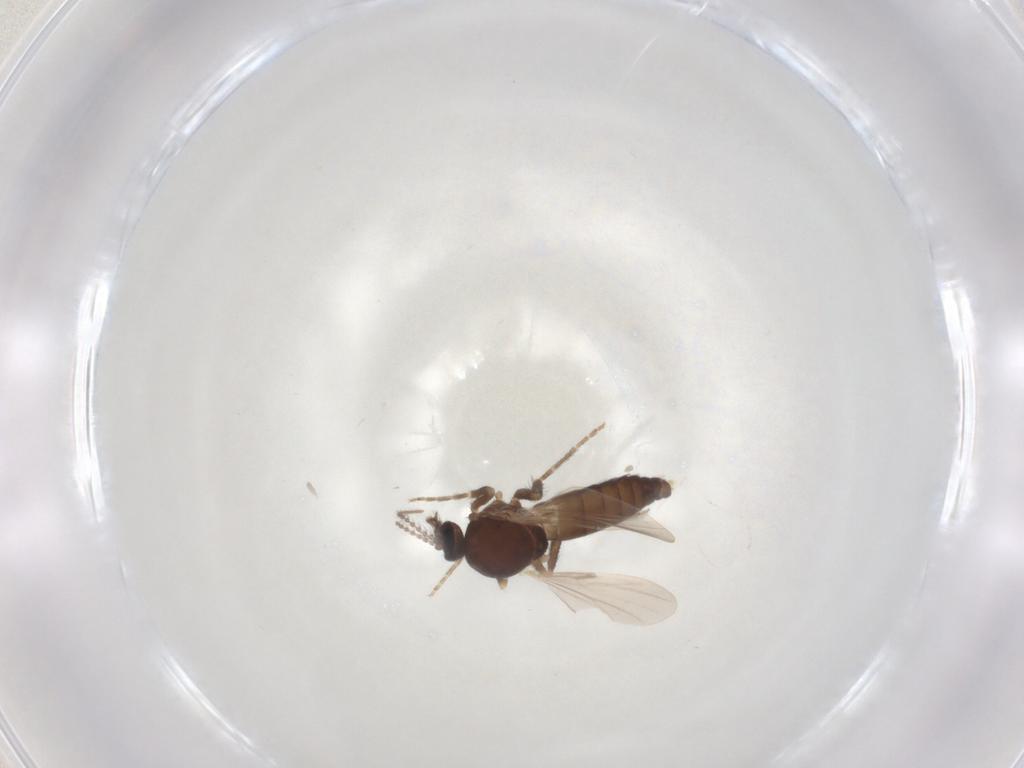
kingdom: Animalia
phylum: Arthropoda
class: Insecta
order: Diptera
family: Ceratopogonidae
